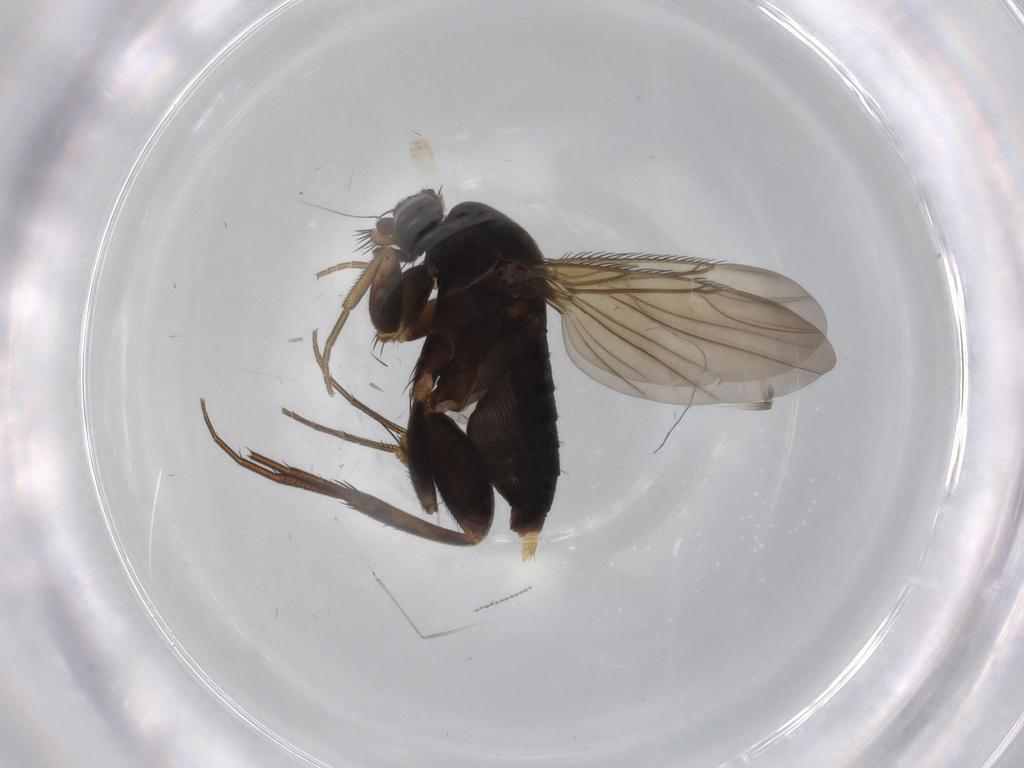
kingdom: Animalia
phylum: Arthropoda
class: Insecta
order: Diptera
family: Phoridae
